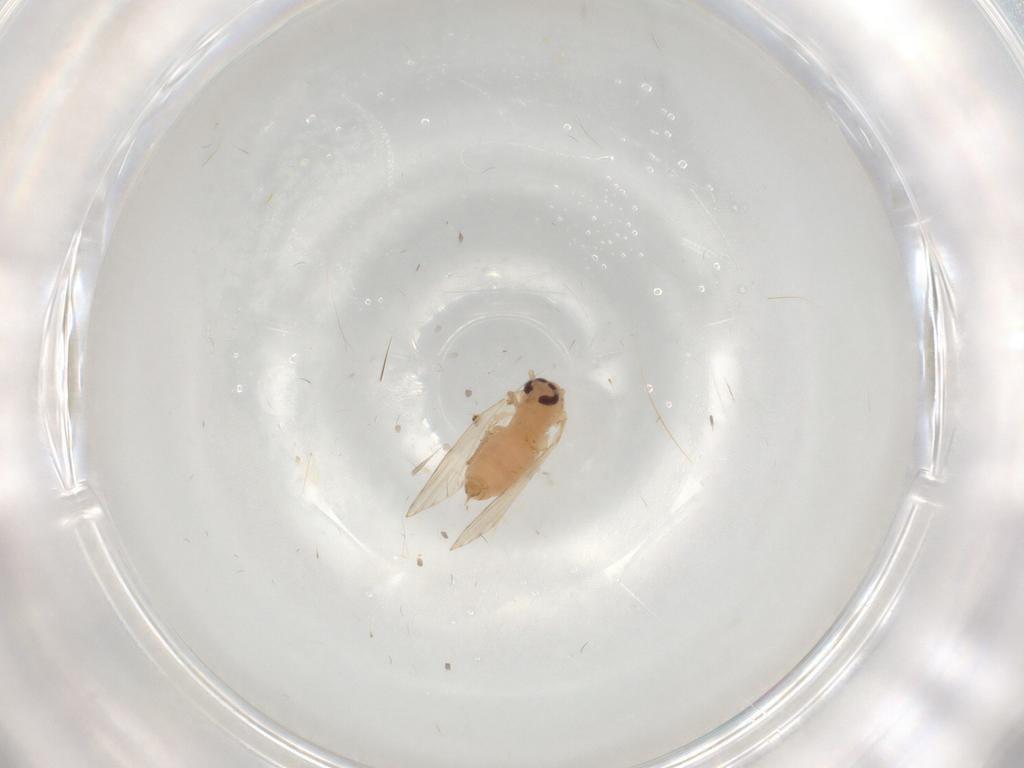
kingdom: Animalia
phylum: Arthropoda
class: Insecta
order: Diptera
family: Psychodidae
